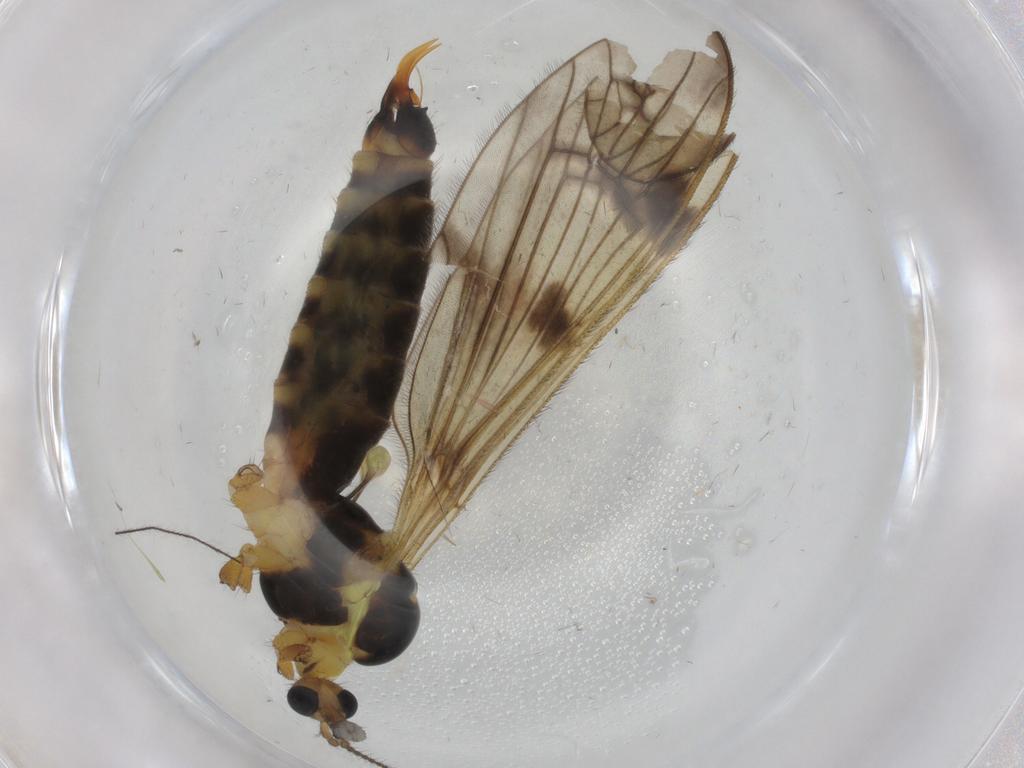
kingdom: Animalia
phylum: Arthropoda
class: Insecta
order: Diptera
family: Limoniidae
